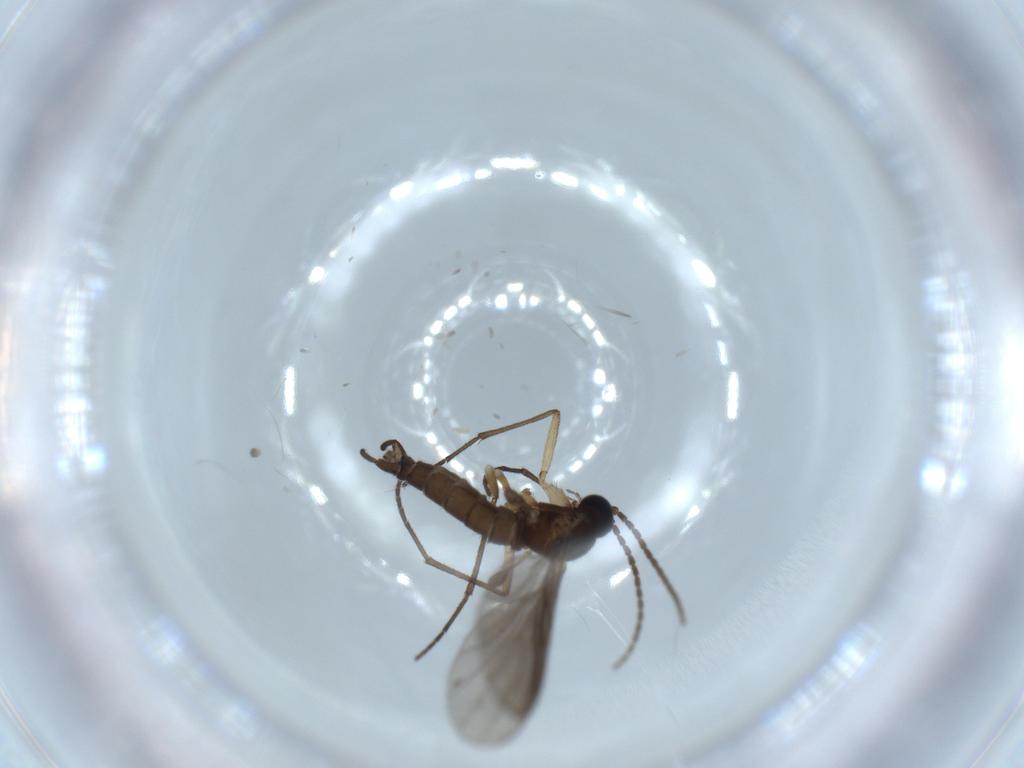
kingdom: Animalia
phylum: Arthropoda
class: Insecta
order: Diptera
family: Sciaridae
